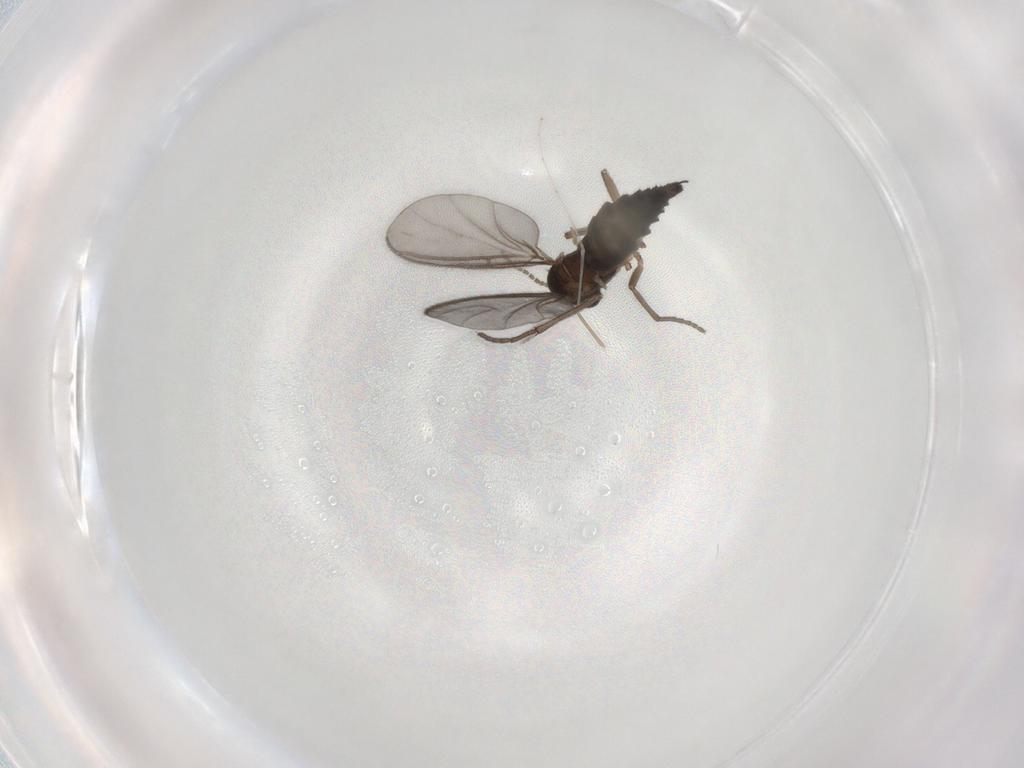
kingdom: Animalia
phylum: Arthropoda
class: Insecta
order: Diptera
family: Sciaridae
